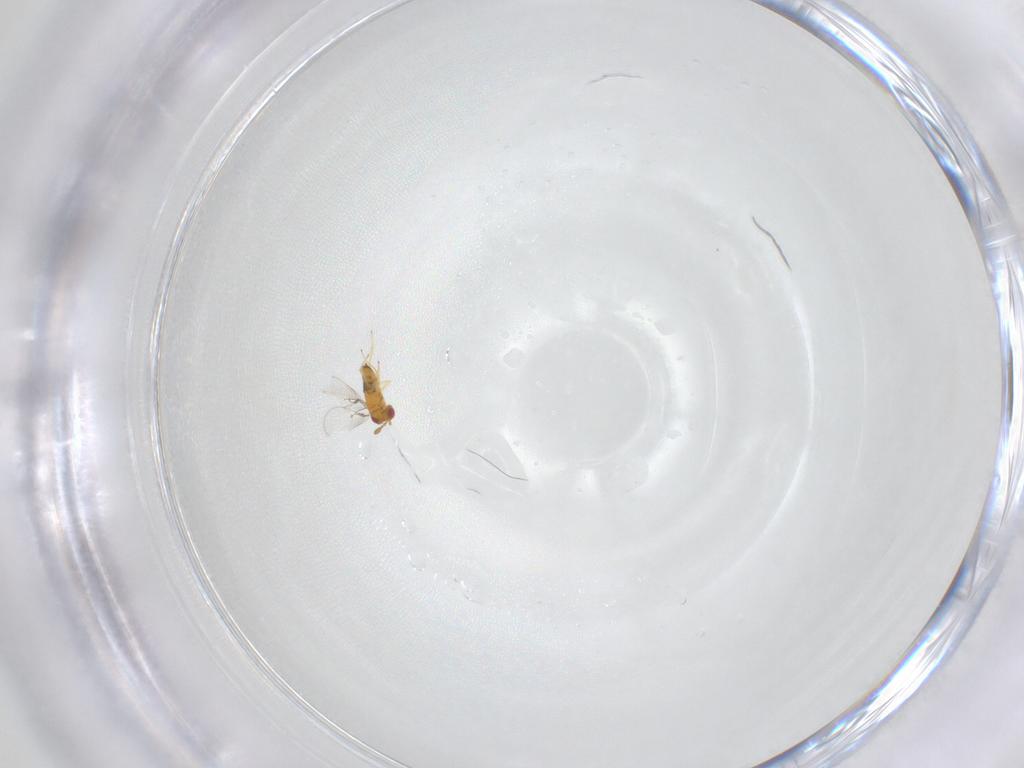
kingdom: Animalia
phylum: Arthropoda
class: Insecta
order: Hymenoptera
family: Trichogrammatidae
